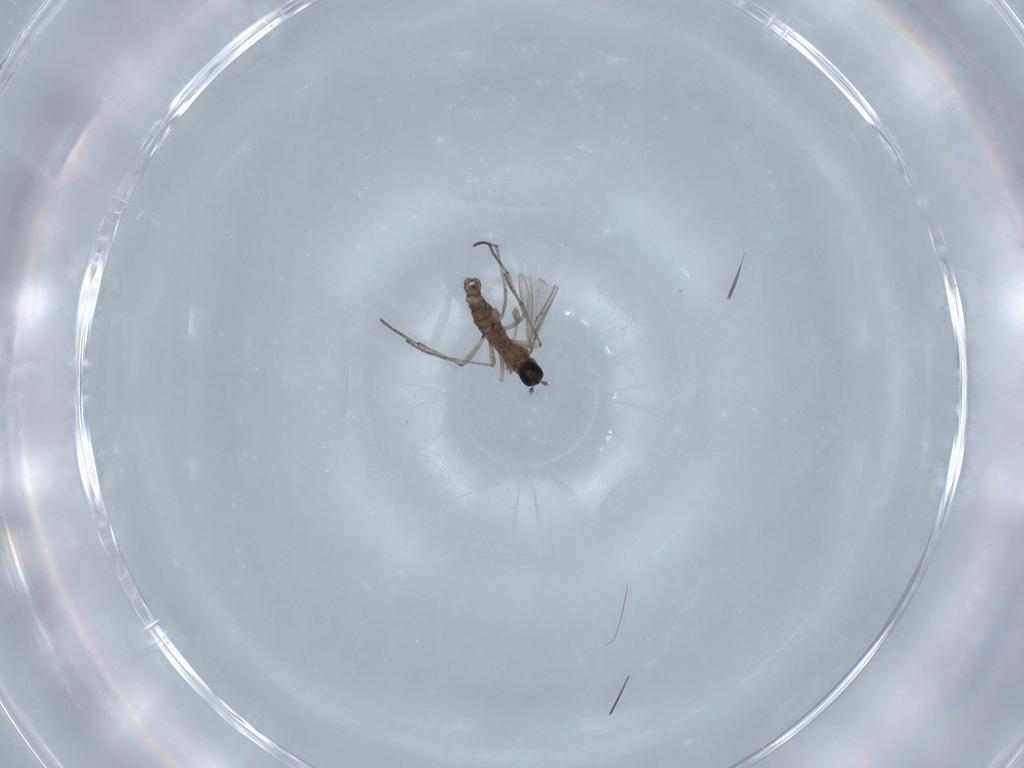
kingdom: Animalia
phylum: Arthropoda
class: Insecta
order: Diptera
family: Sciaridae
